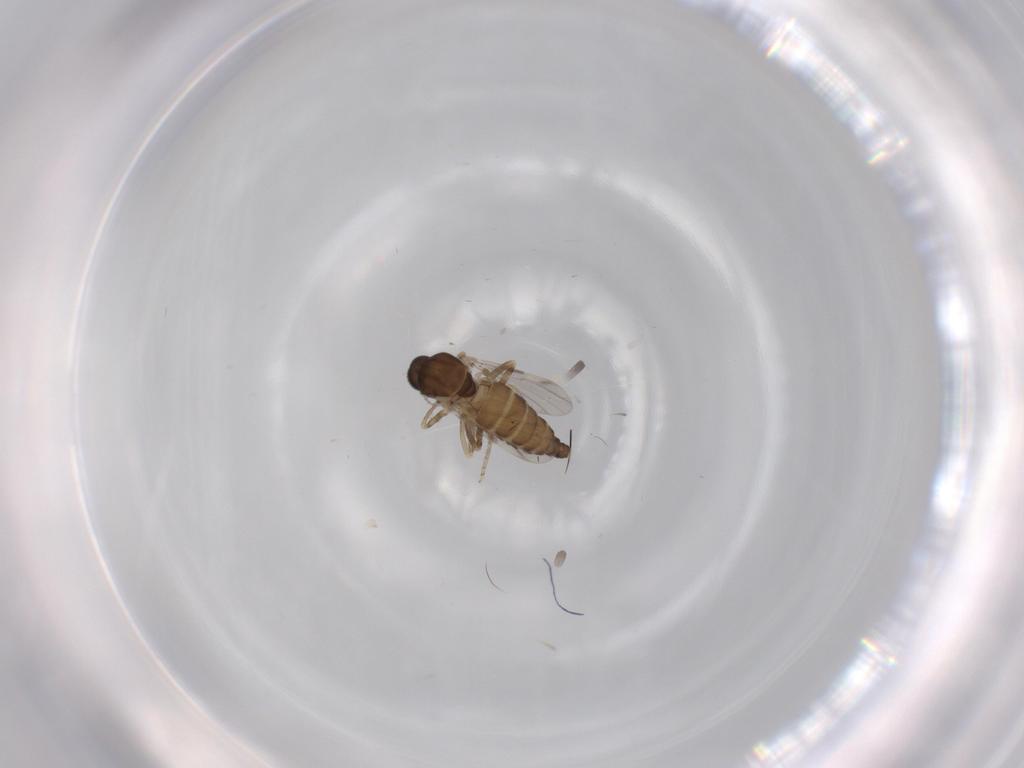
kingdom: Animalia
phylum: Arthropoda
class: Insecta
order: Diptera
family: Ceratopogonidae
